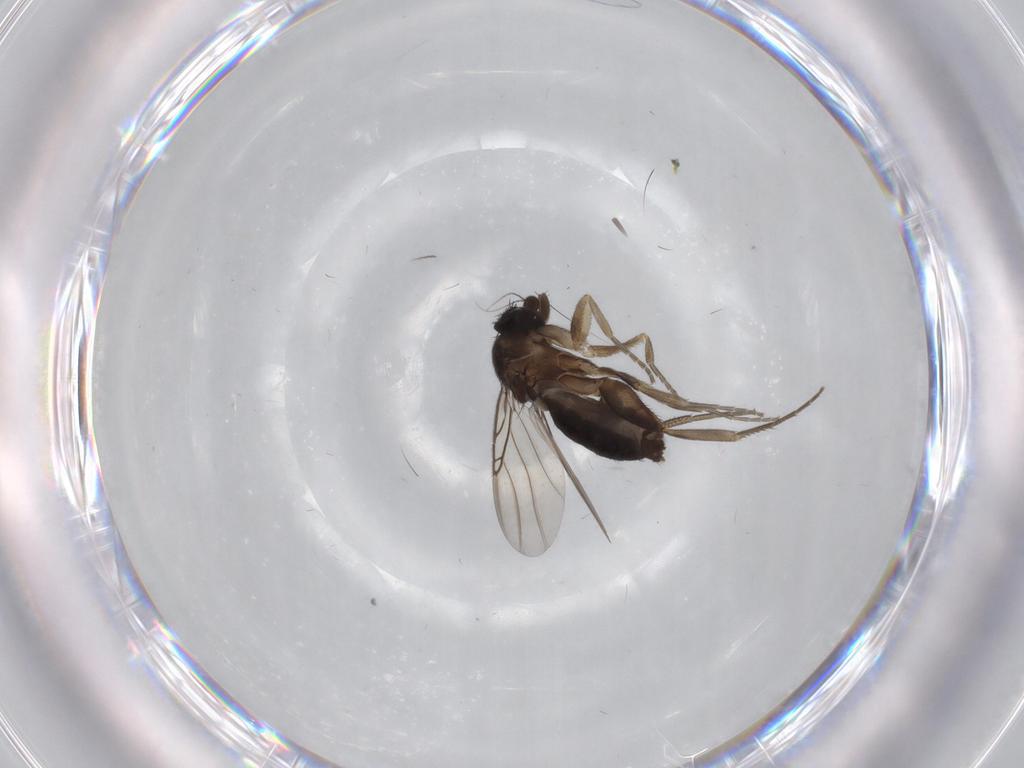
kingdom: Animalia
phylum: Arthropoda
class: Insecta
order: Diptera
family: Phoridae
